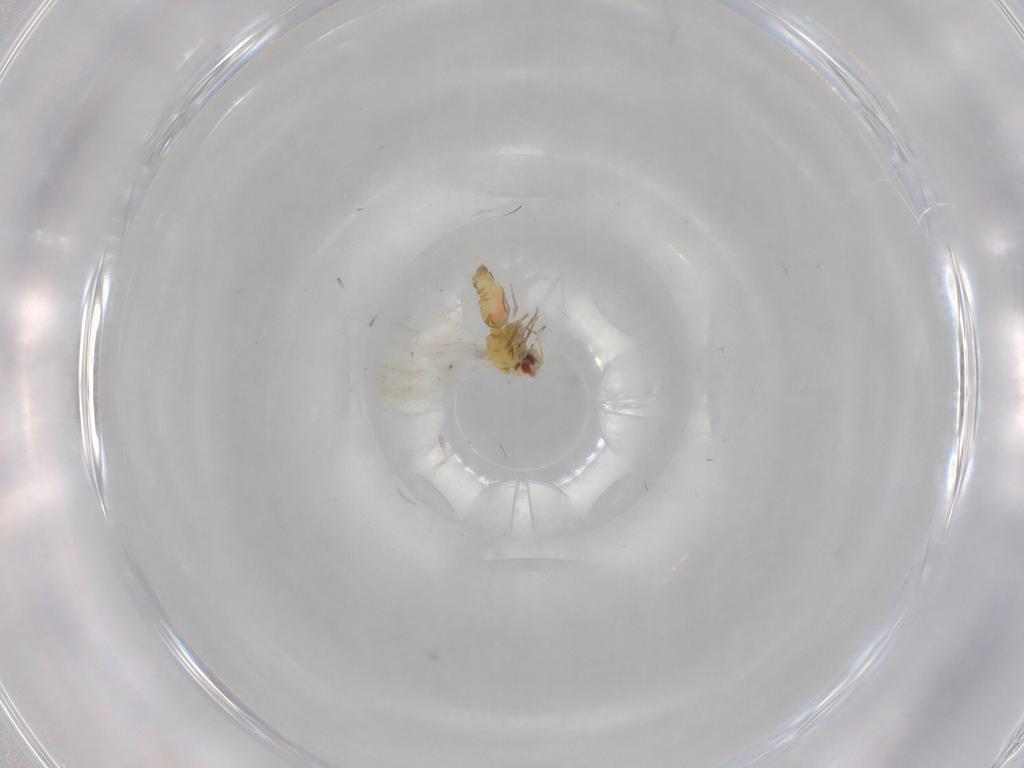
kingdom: Animalia
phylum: Arthropoda
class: Insecta
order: Hemiptera
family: Aleyrodidae
